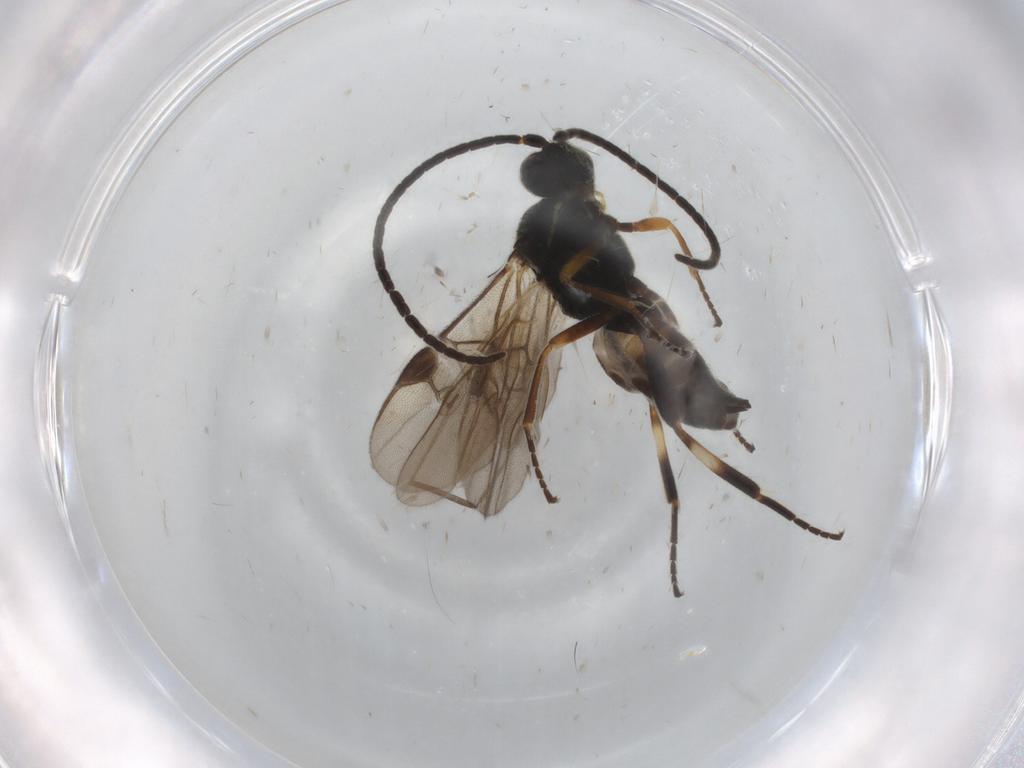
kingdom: Animalia
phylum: Arthropoda
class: Insecta
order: Hymenoptera
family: Braconidae
